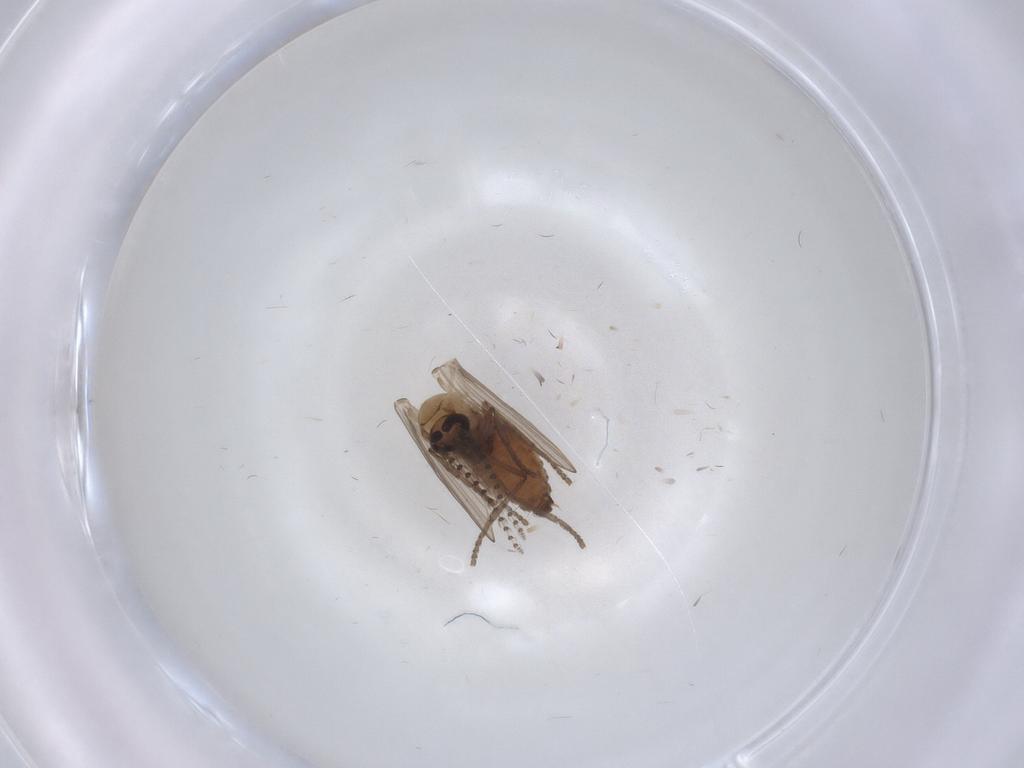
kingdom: Animalia
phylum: Arthropoda
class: Insecta
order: Diptera
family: Psychodidae
